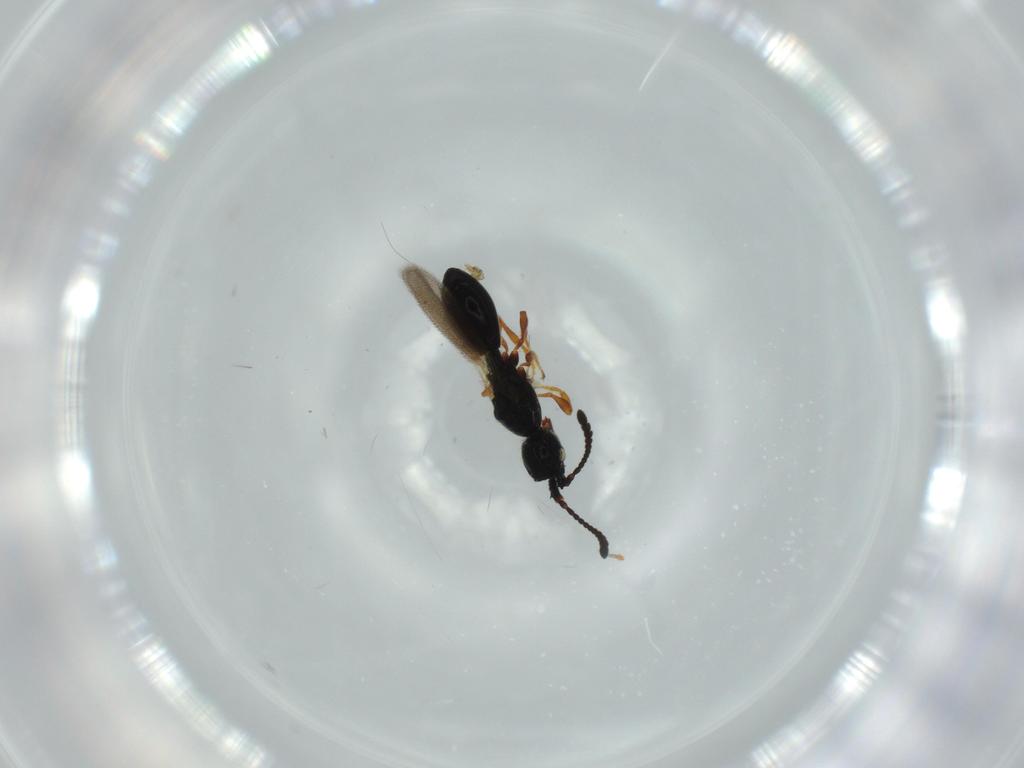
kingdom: Animalia
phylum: Arthropoda
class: Insecta
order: Hymenoptera
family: Diapriidae
